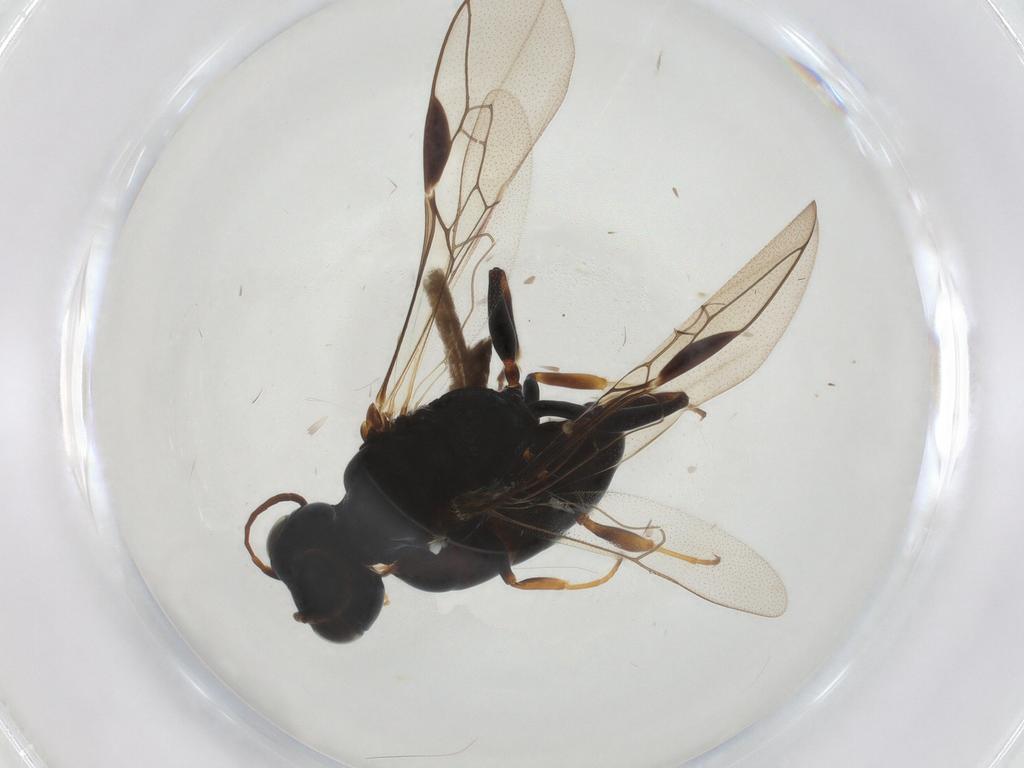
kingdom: Animalia
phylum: Arthropoda
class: Insecta
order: Hymenoptera
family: Pemphredonidae
